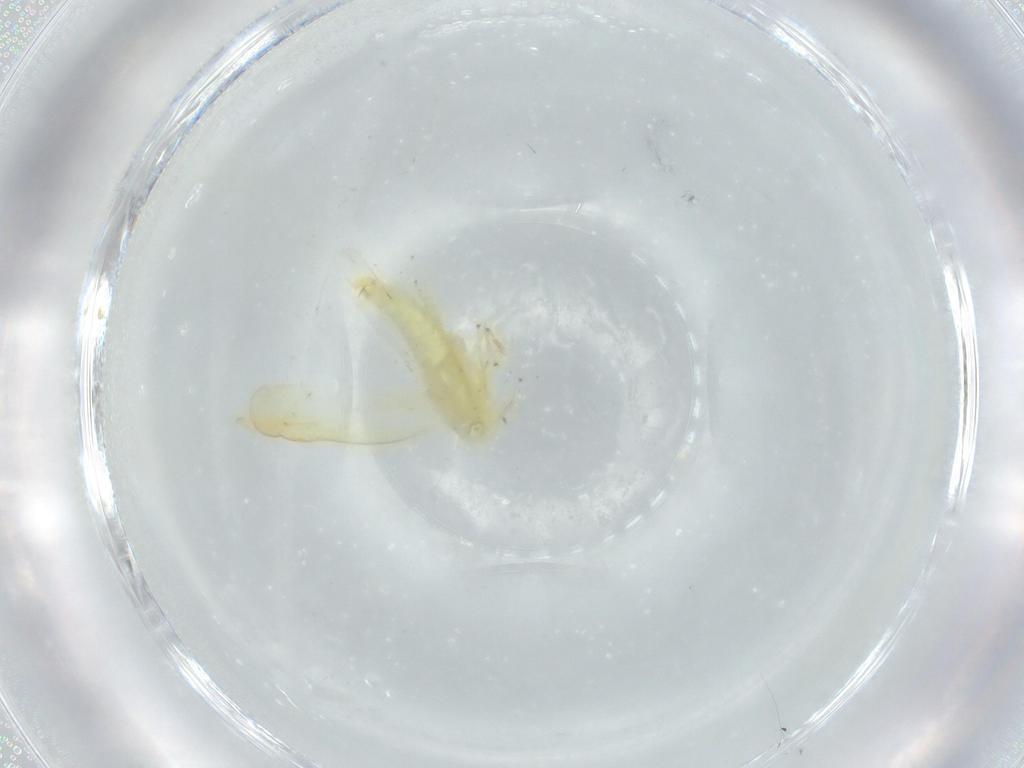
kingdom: Animalia
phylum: Arthropoda
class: Insecta
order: Hemiptera
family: Cicadellidae
